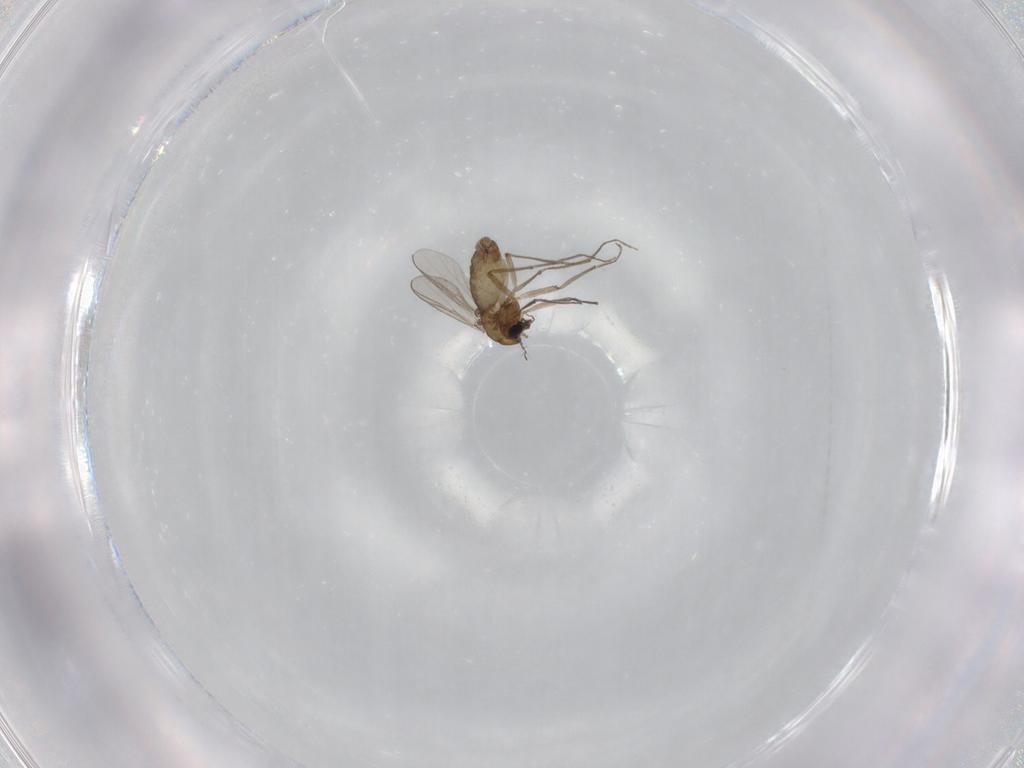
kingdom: Animalia
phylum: Arthropoda
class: Insecta
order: Diptera
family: Chironomidae
